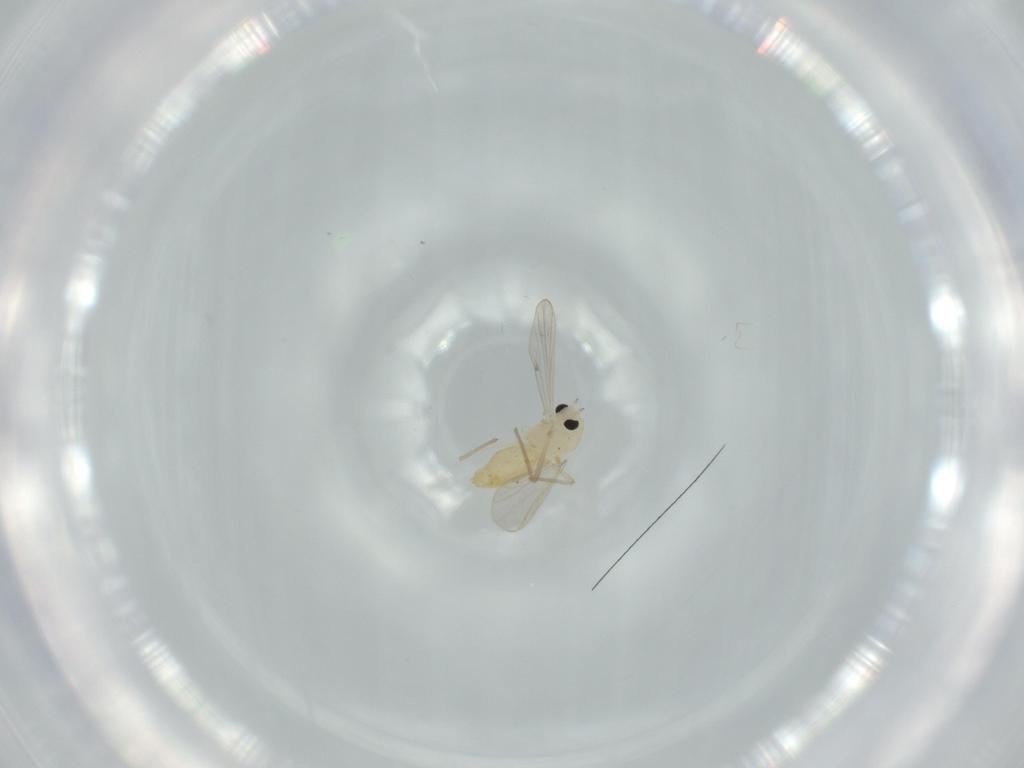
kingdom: Animalia
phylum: Arthropoda
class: Insecta
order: Diptera
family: Chironomidae
